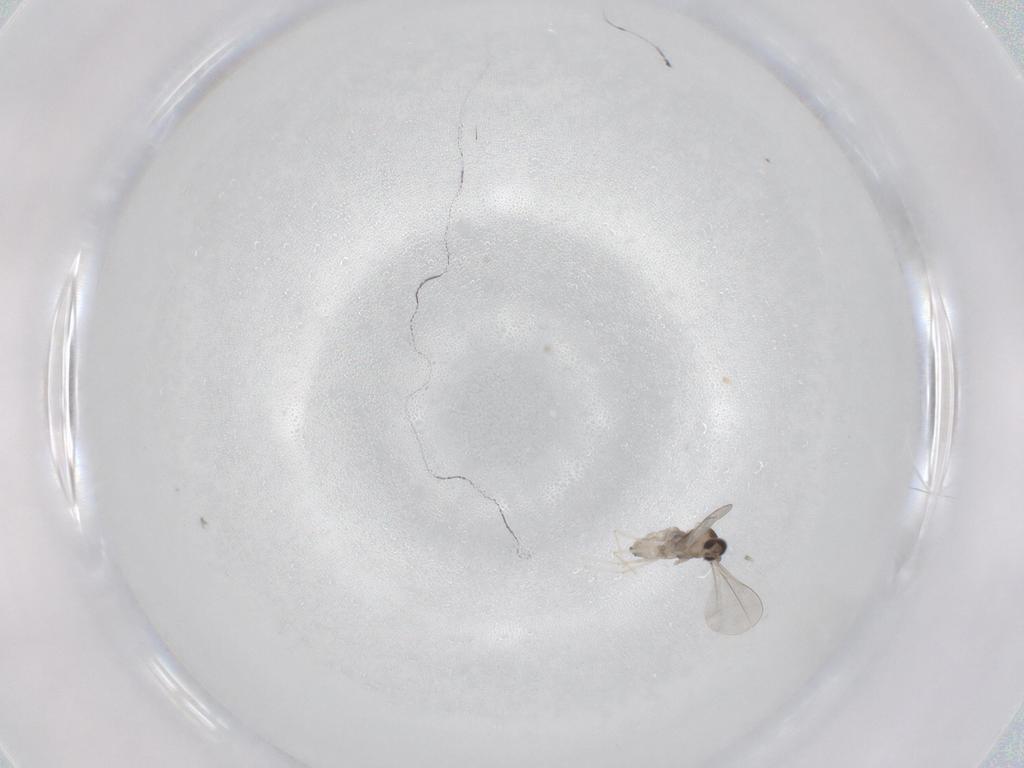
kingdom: Animalia
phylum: Arthropoda
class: Insecta
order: Diptera
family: Cecidomyiidae
